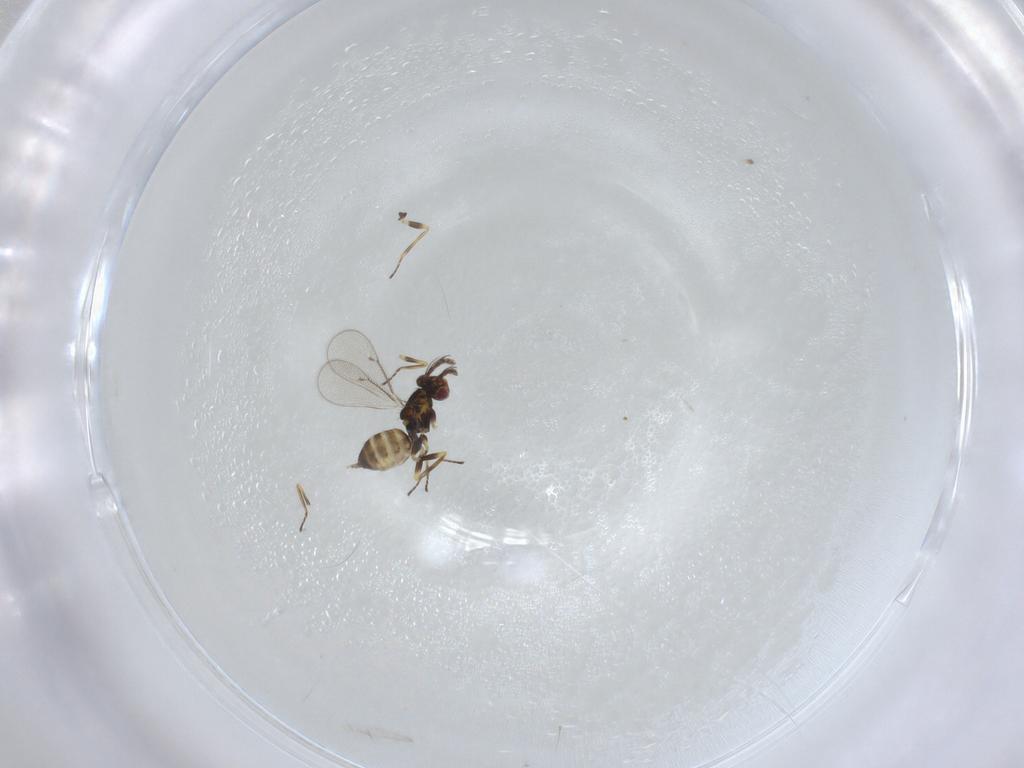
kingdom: Animalia
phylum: Arthropoda
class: Insecta
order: Hymenoptera
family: Eulophidae
